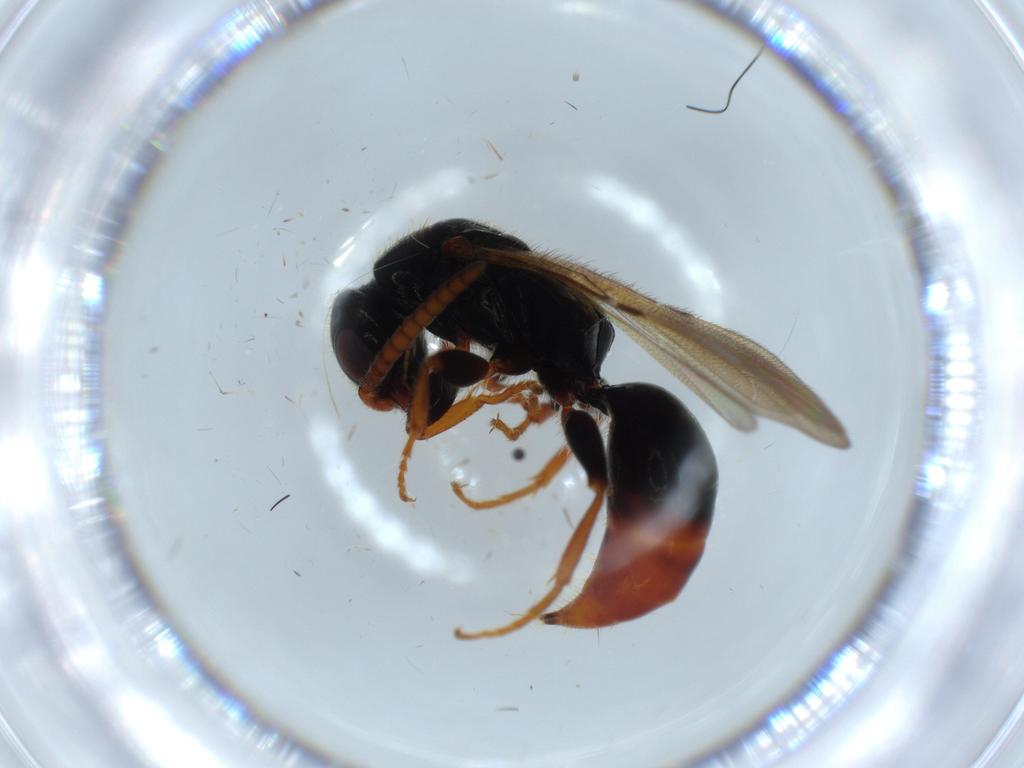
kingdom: Animalia
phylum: Arthropoda
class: Insecta
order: Hymenoptera
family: Bethylidae
